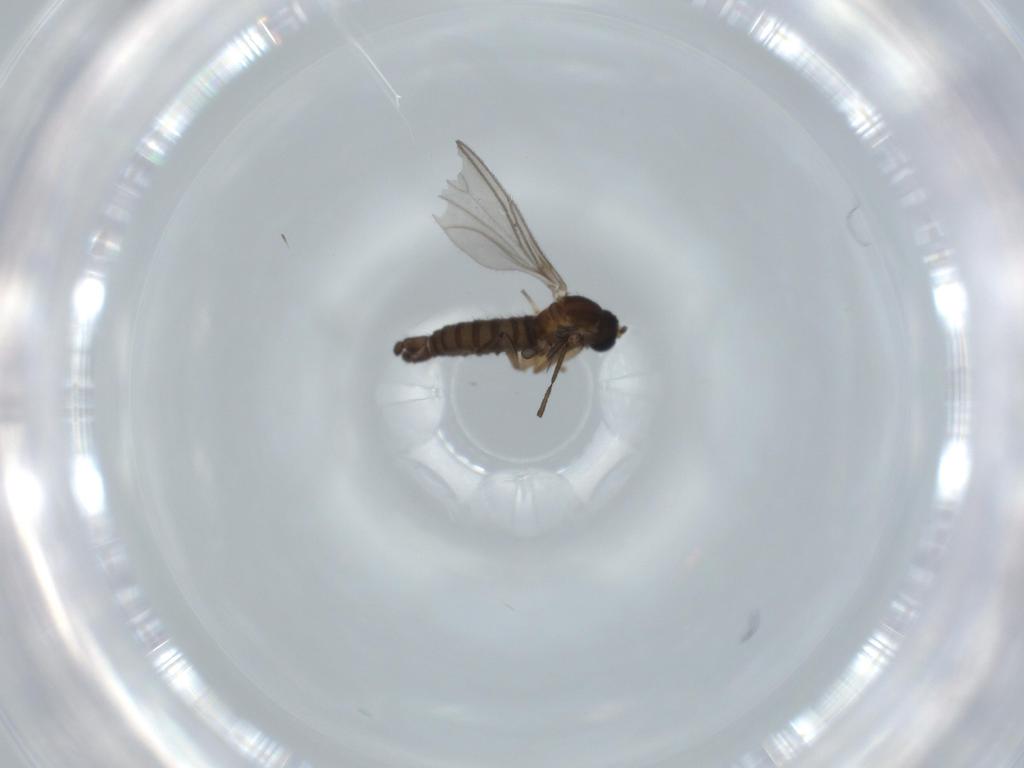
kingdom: Animalia
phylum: Arthropoda
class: Insecta
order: Diptera
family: Sciaridae
